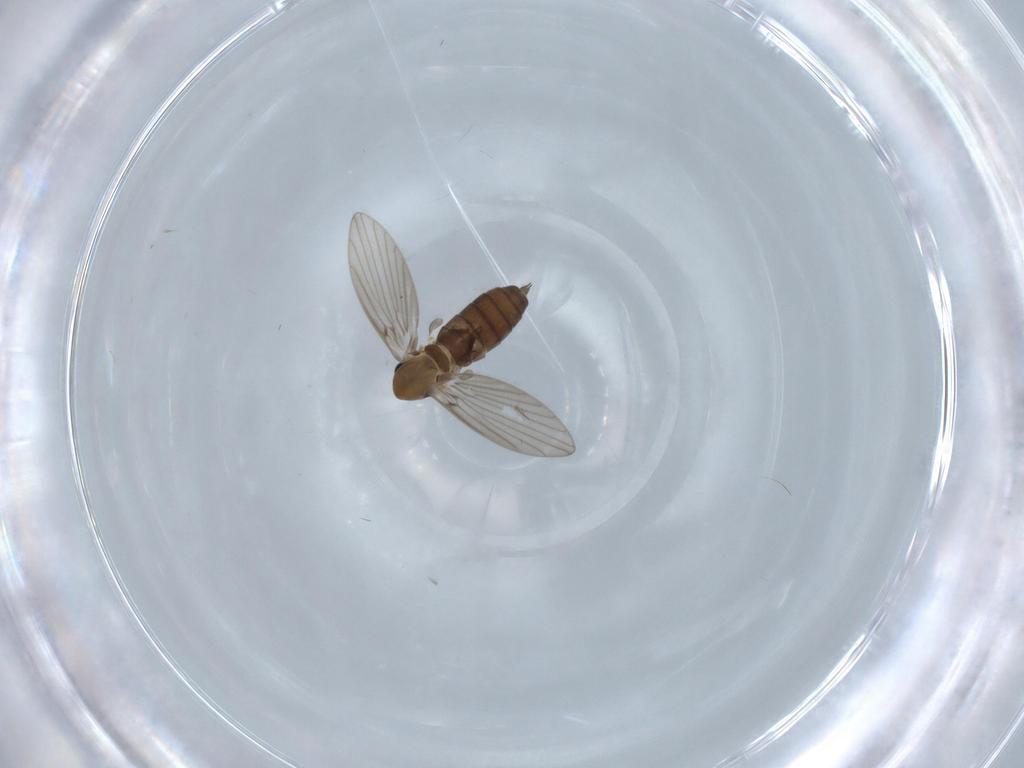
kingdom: Animalia
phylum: Arthropoda
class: Insecta
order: Diptera
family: Psychodidae
